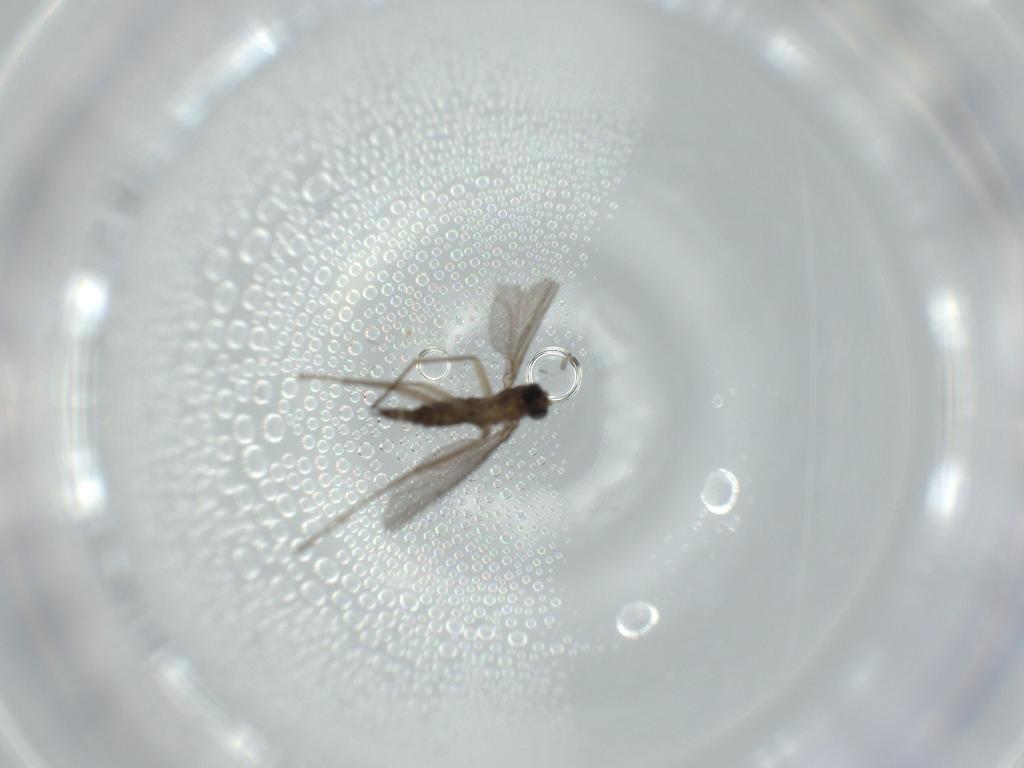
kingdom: Animalia
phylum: Arthropoda
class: Insecta
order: Diptera
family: Sciaridae
